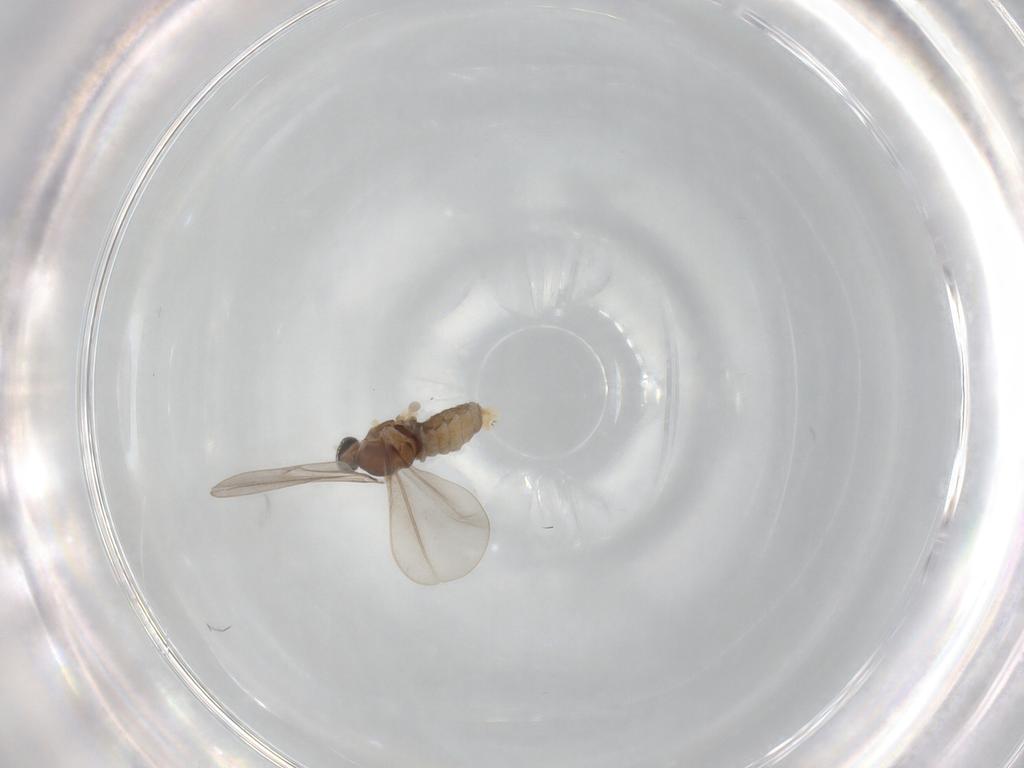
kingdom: Animalia
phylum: Arthropoda
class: Insecta
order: Diptera
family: Cecidomyiidae
